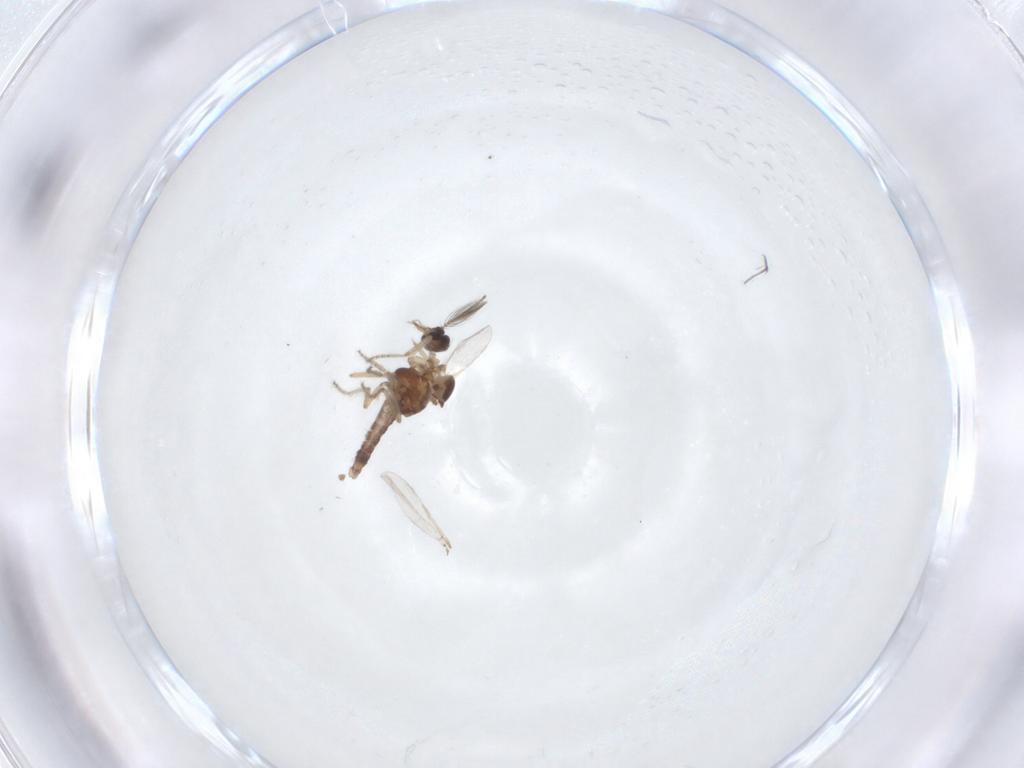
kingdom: Animalia
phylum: Arthropoda
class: Insecta
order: Diptera
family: Ceratopogonidae
